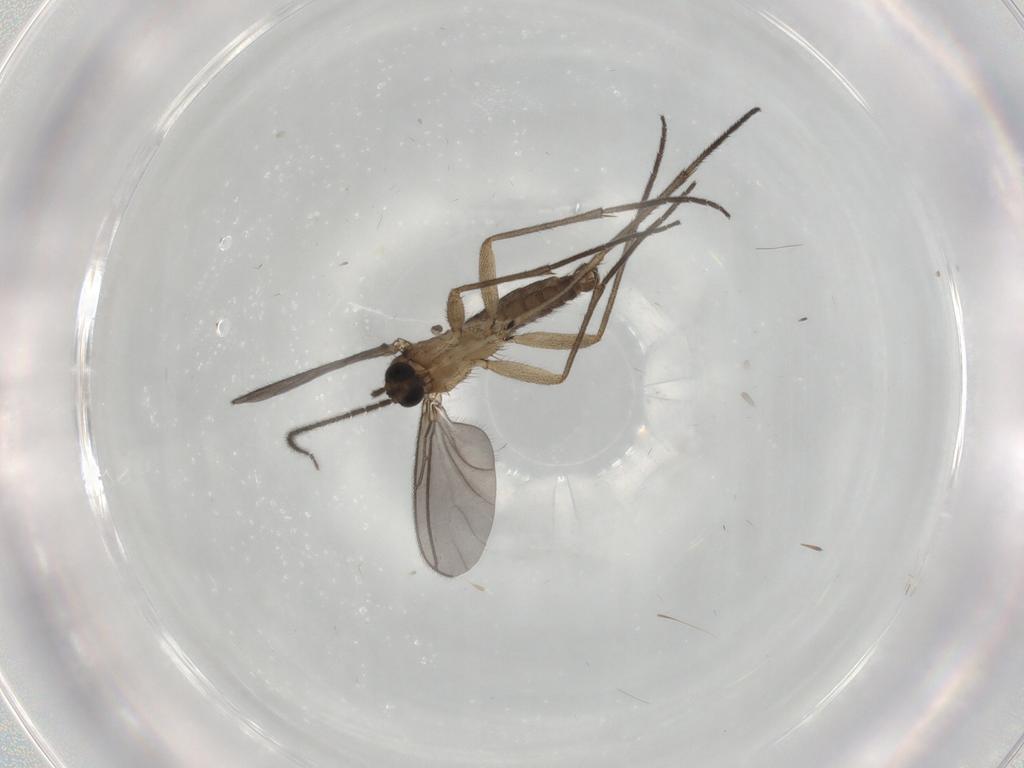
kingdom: Animalia
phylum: Arthropoda
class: Insecta
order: Diptera
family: Sciaridae
